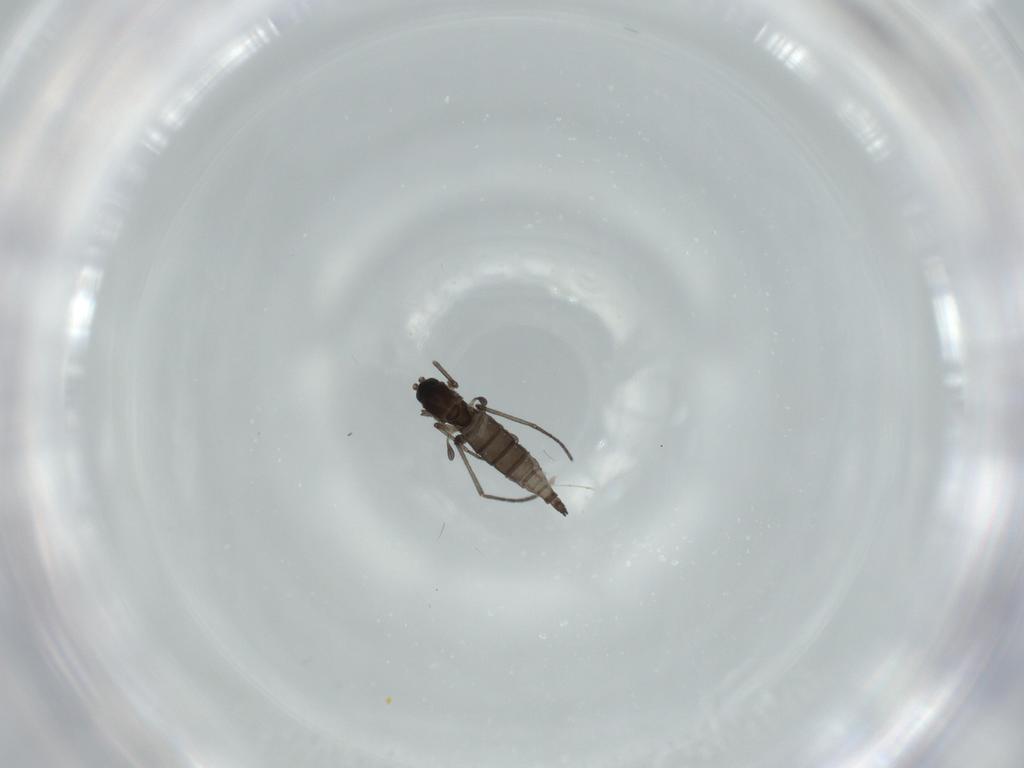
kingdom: Animalia
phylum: Arthropoda
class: Insecta
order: Diptera
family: Cecidomyiidae
